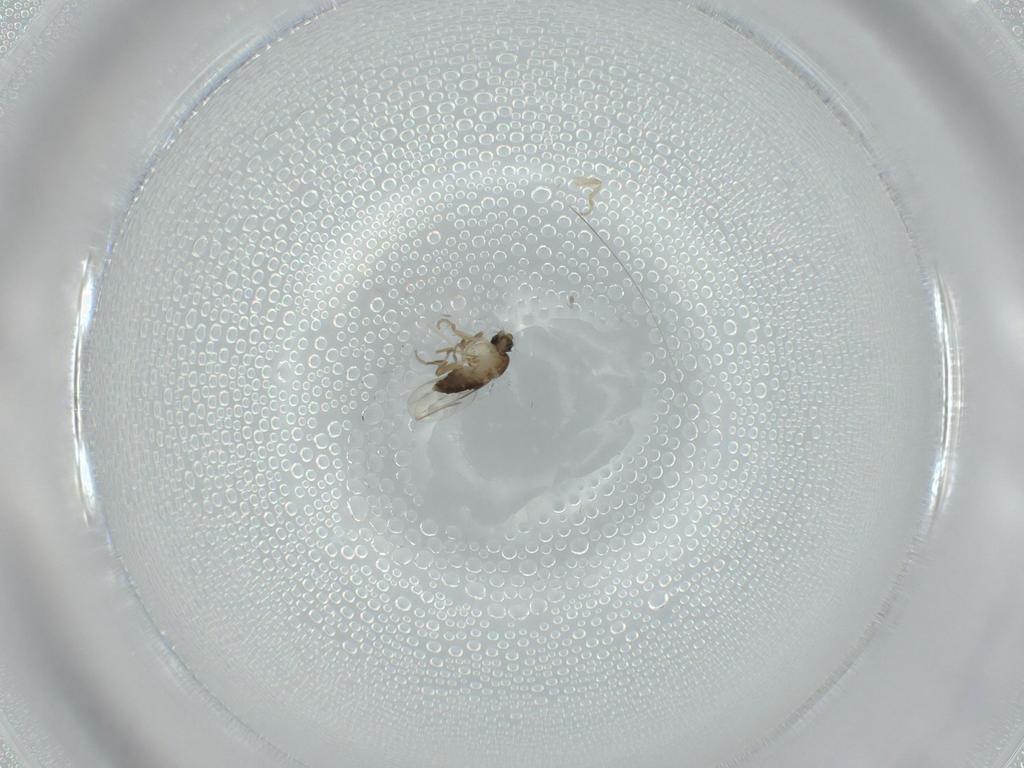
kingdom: Animalia
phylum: Arthropoda
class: Insecta
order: Diptera
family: Phoridae
